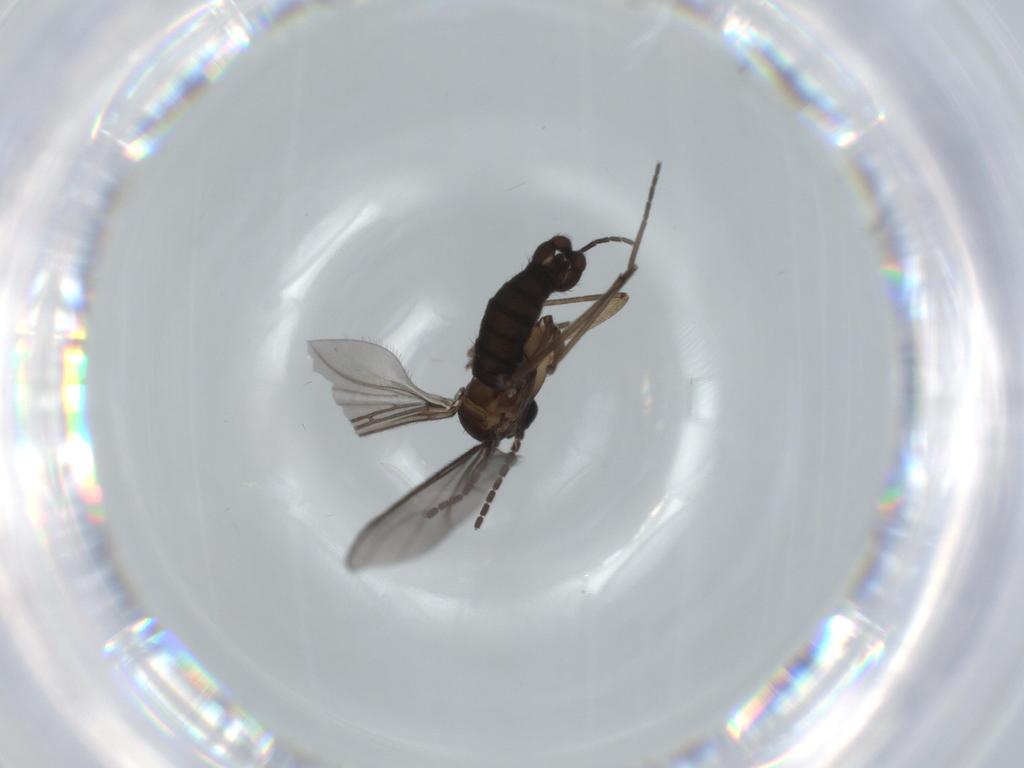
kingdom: Animalia
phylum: Arthropoda
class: Insecta
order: Diptera
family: Sciaridae
